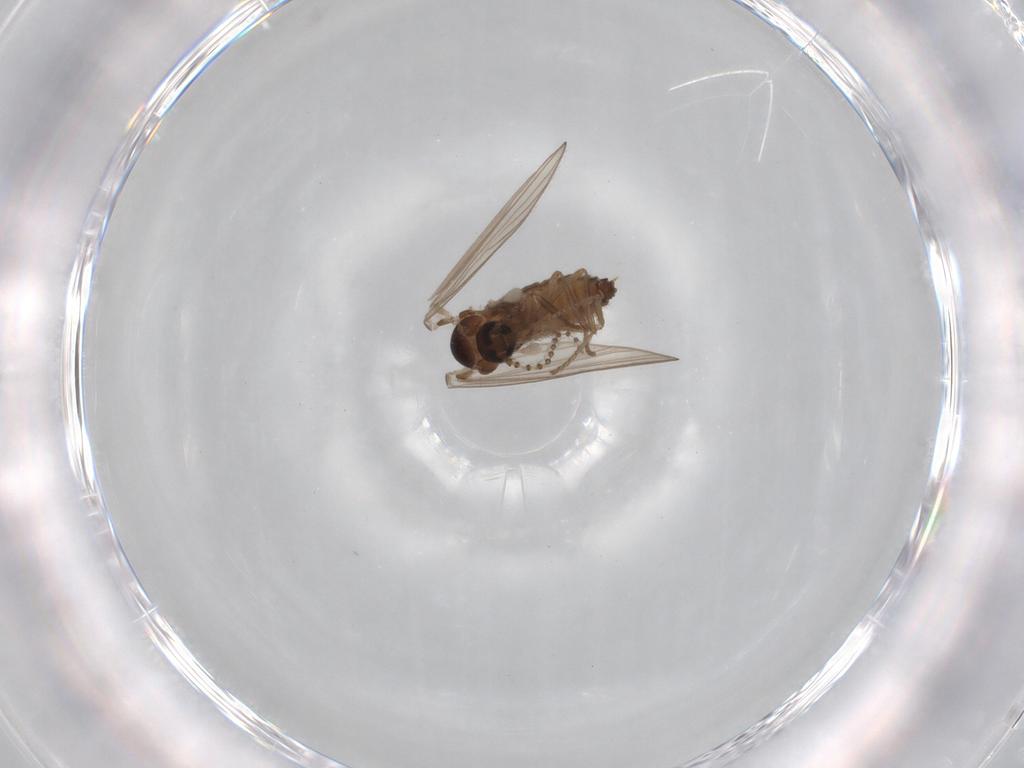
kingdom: Animalia
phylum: Arthropoda
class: Insecta
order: Diptera
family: Psychodidae
